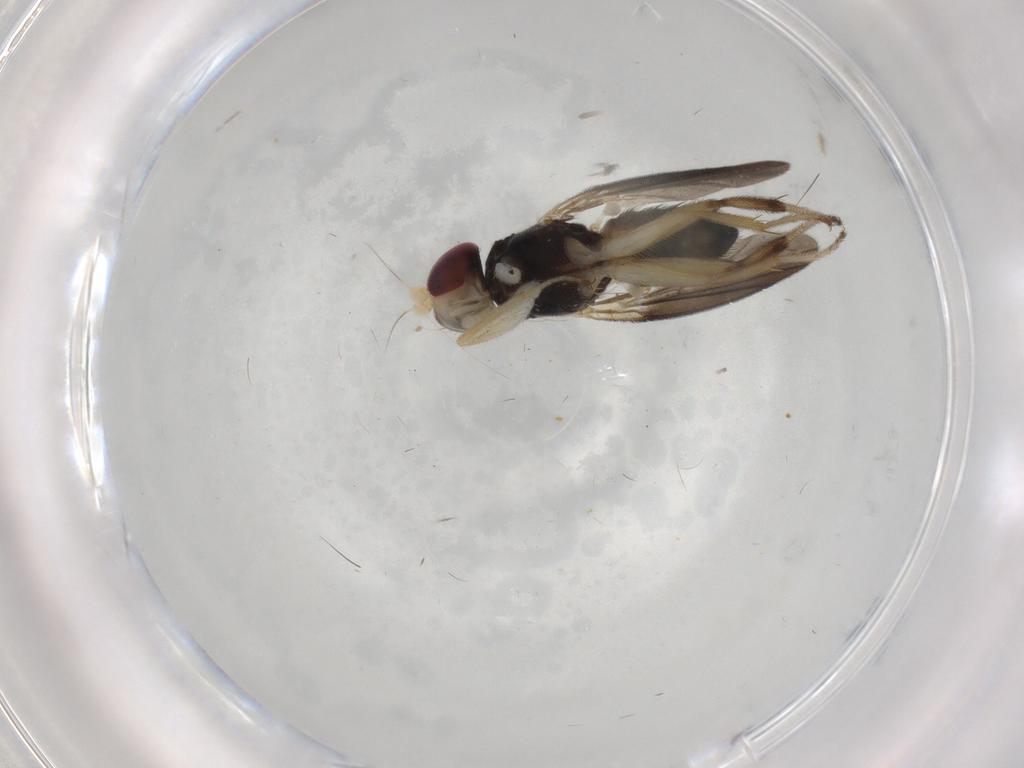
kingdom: Animalia
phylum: Arthropoda
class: Insecta
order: Diptera
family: Clusiidae
